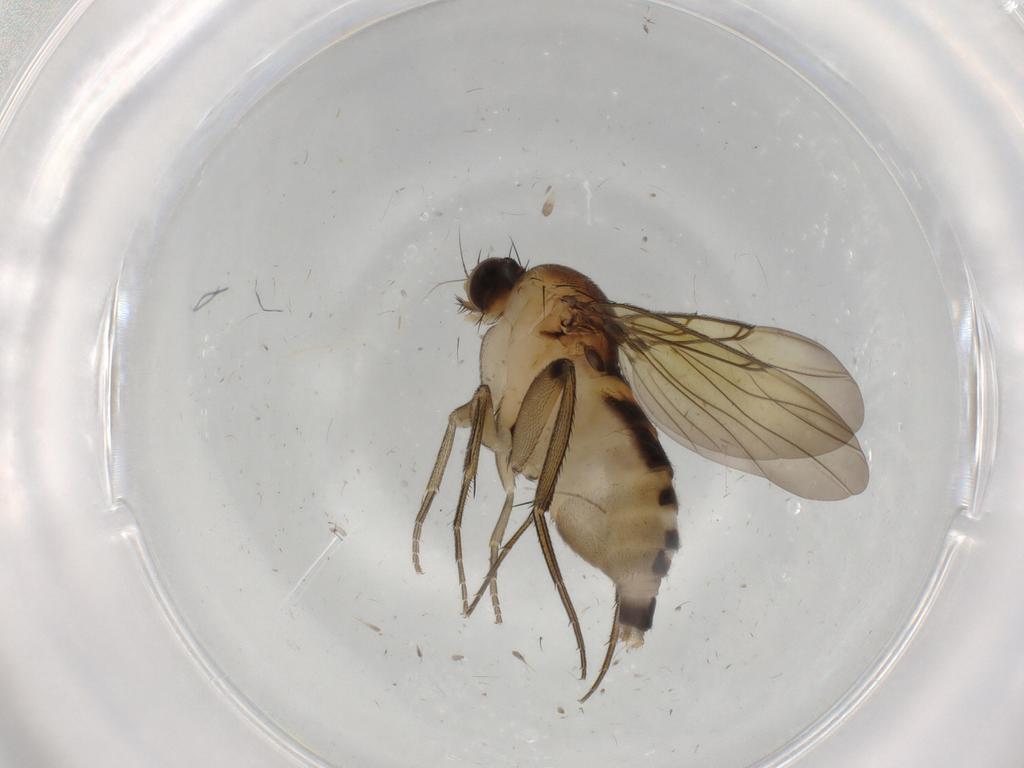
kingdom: Animalia
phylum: Arthropoda
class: Insecta
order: Diptera
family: Phoridae
